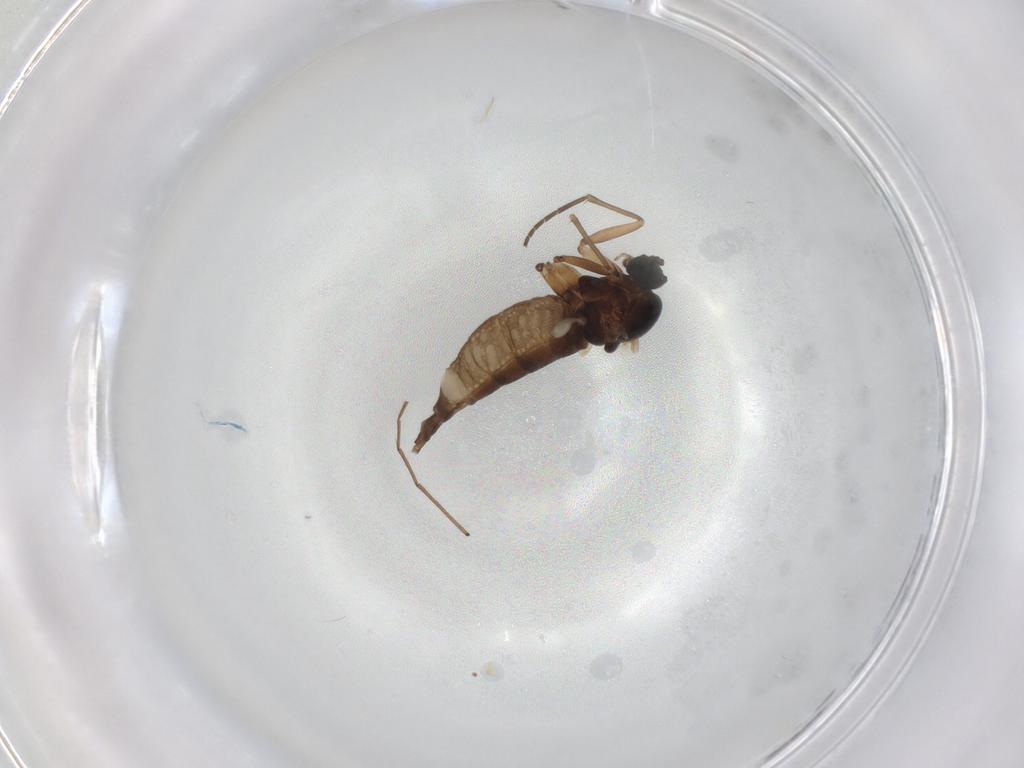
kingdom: Animalia
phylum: Arthropoda
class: Insecta
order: Diptera
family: Sciaridae
